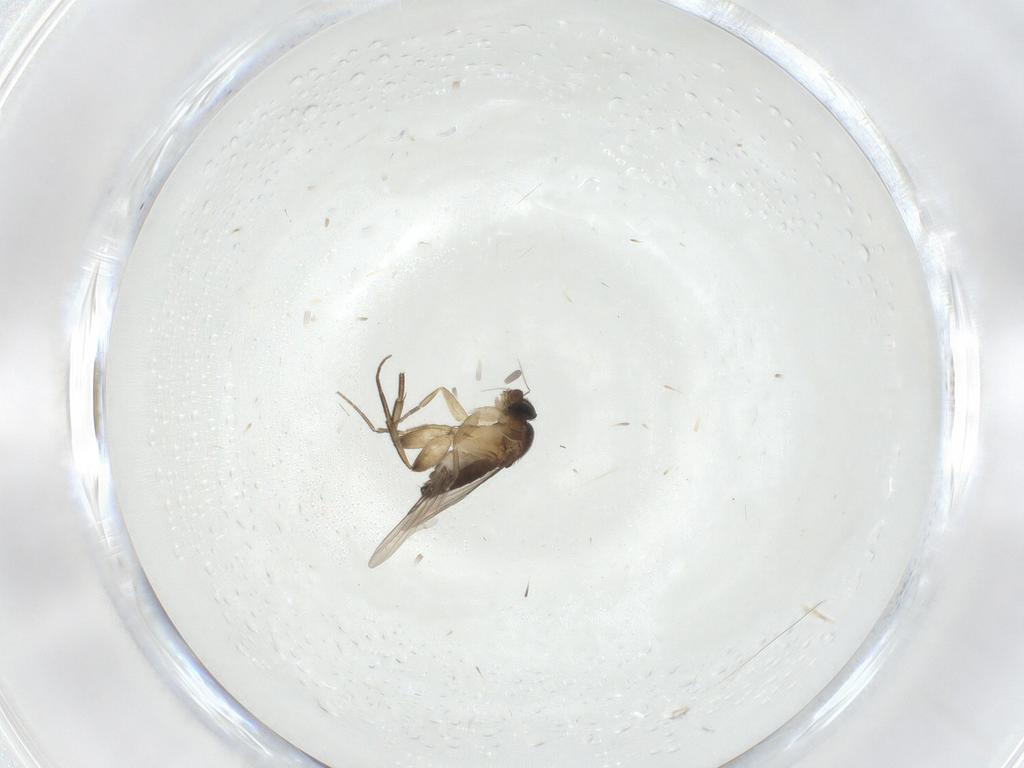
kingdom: Animalia
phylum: Arthropoda
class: Insecta
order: Diptera
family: Phoridae
